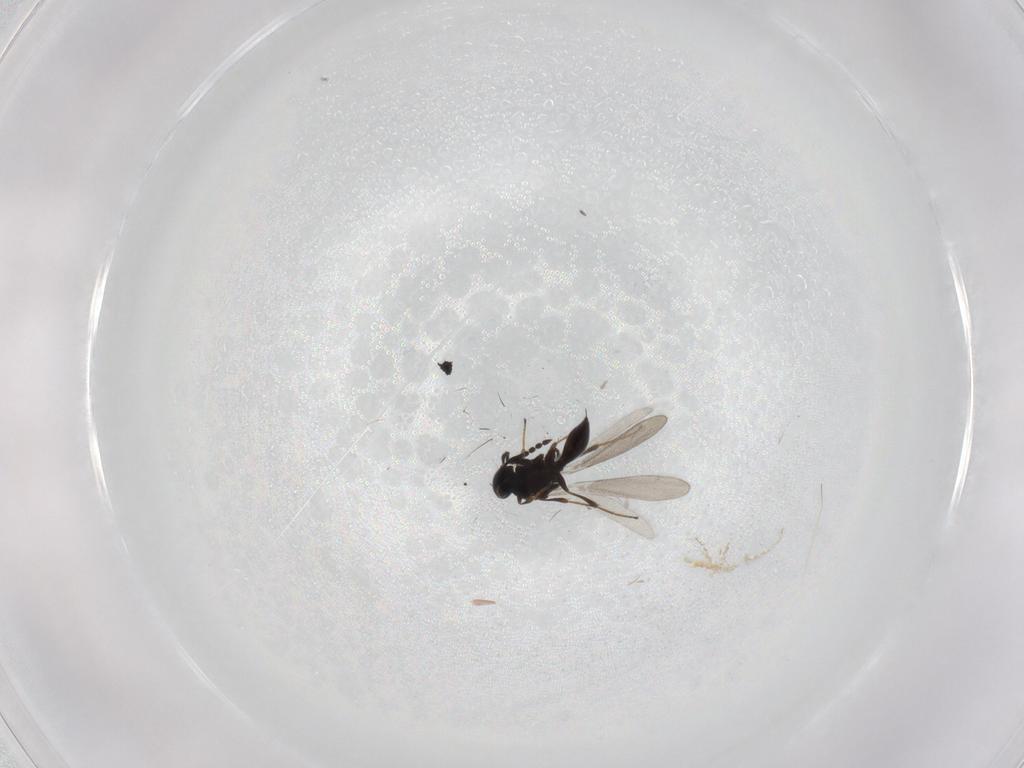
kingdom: Animalia
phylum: Arthropoda
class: Insecta
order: Hymenoptera
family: Platygastridae
